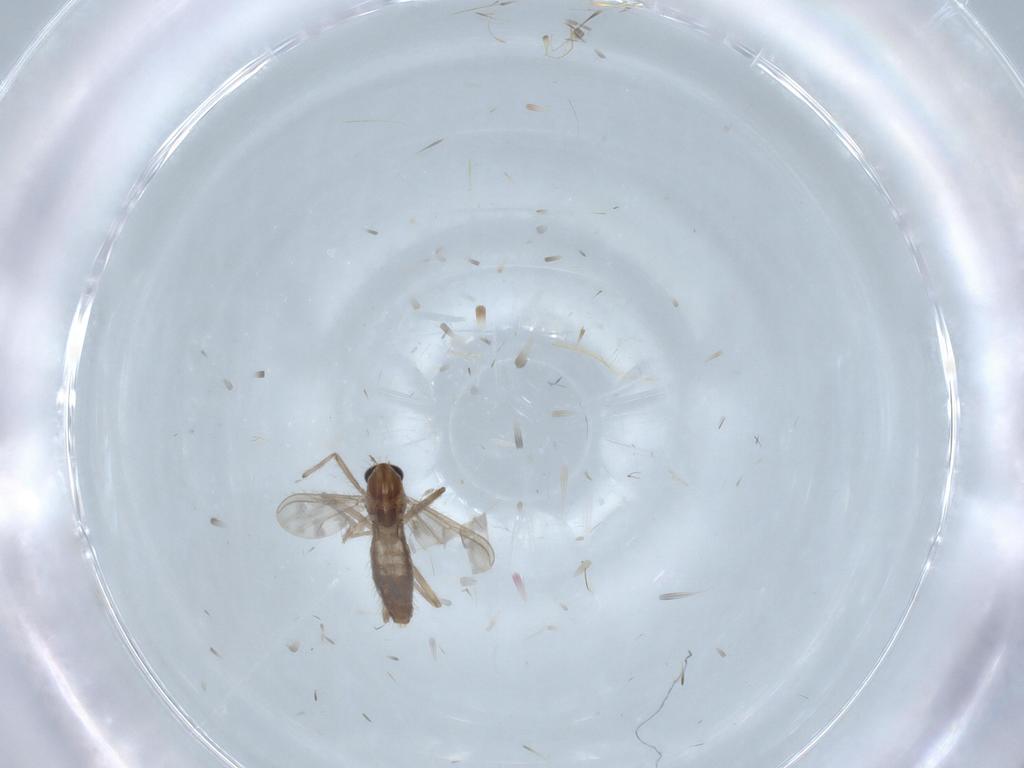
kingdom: Animalia
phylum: Arthropoda
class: Insecta
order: Diptera
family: Chironomidae
